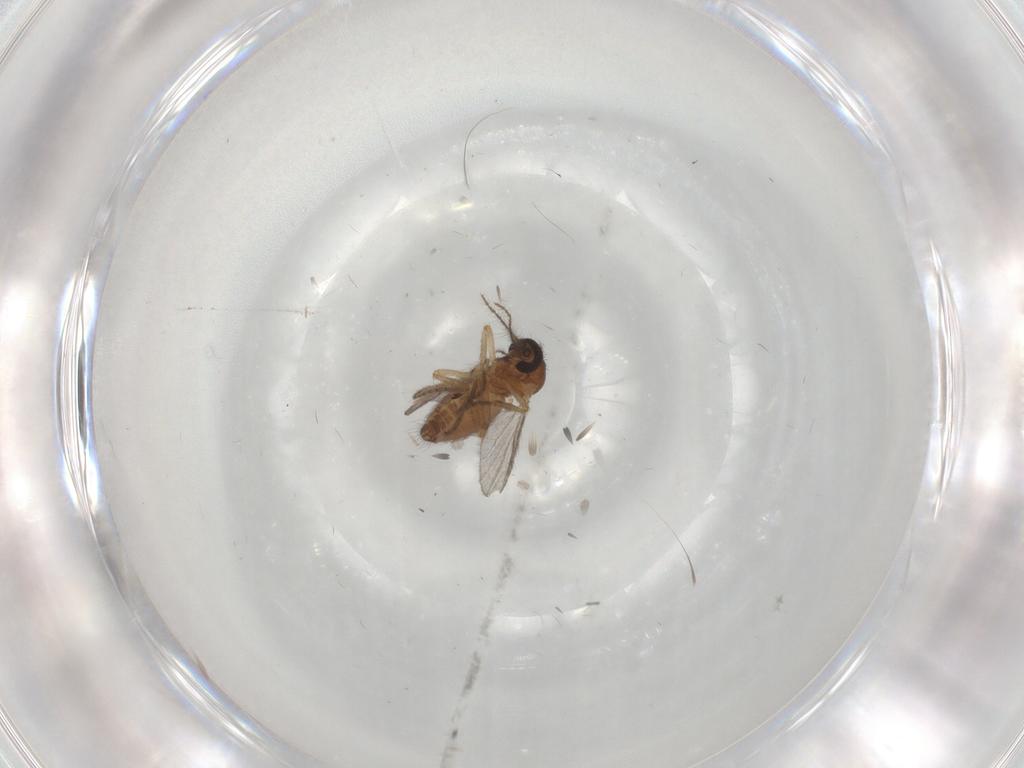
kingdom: Animalia
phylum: Arthropoda
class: Insecta
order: Diptera
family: Ceratopogonidae
